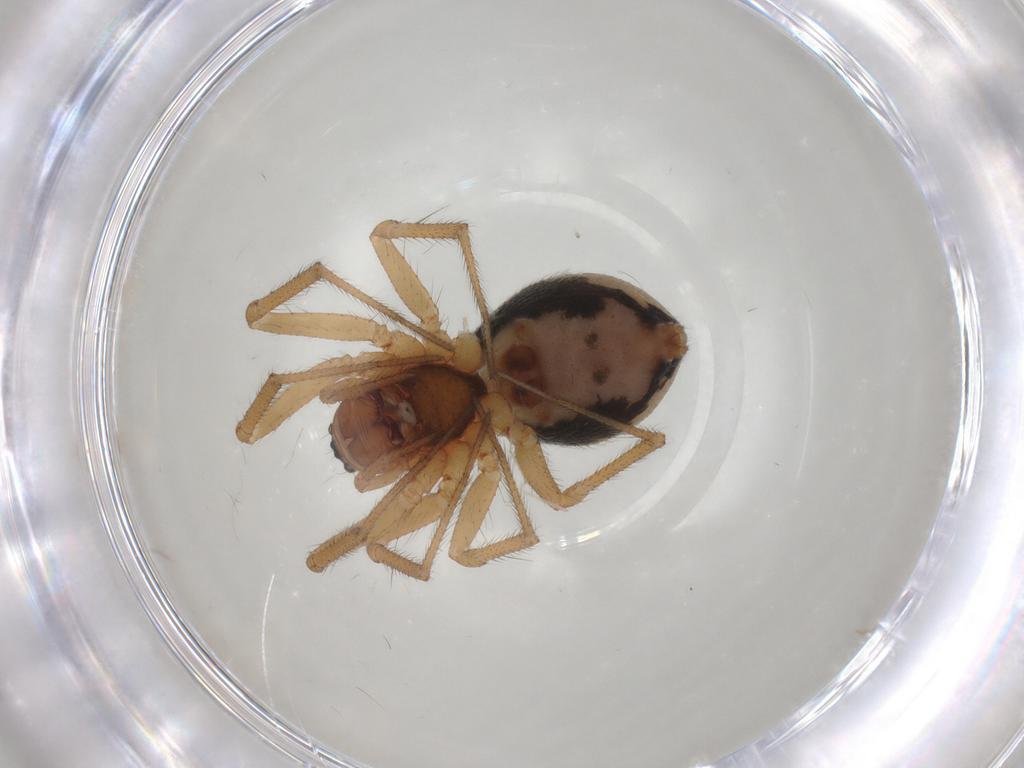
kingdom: Animalia
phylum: Arthropoda
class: Arachnida
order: Araneae
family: Linyphiidae
